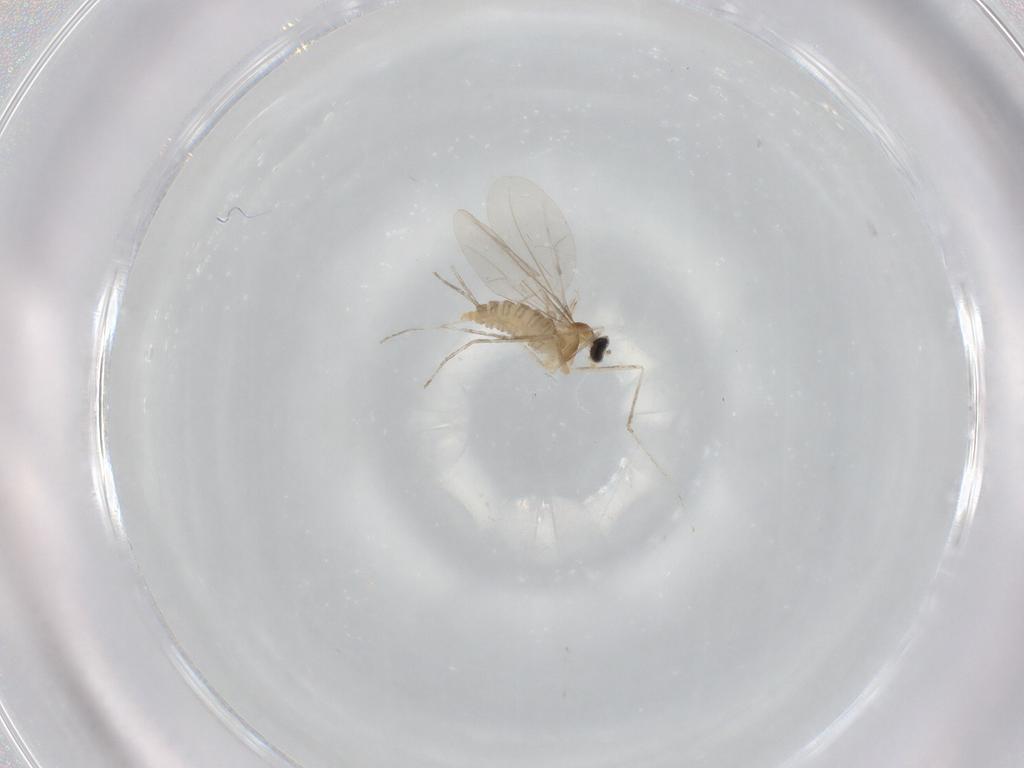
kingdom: Animalia
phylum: Arthropoda
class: Insecta
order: Diptera
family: Cecidomyiidae
